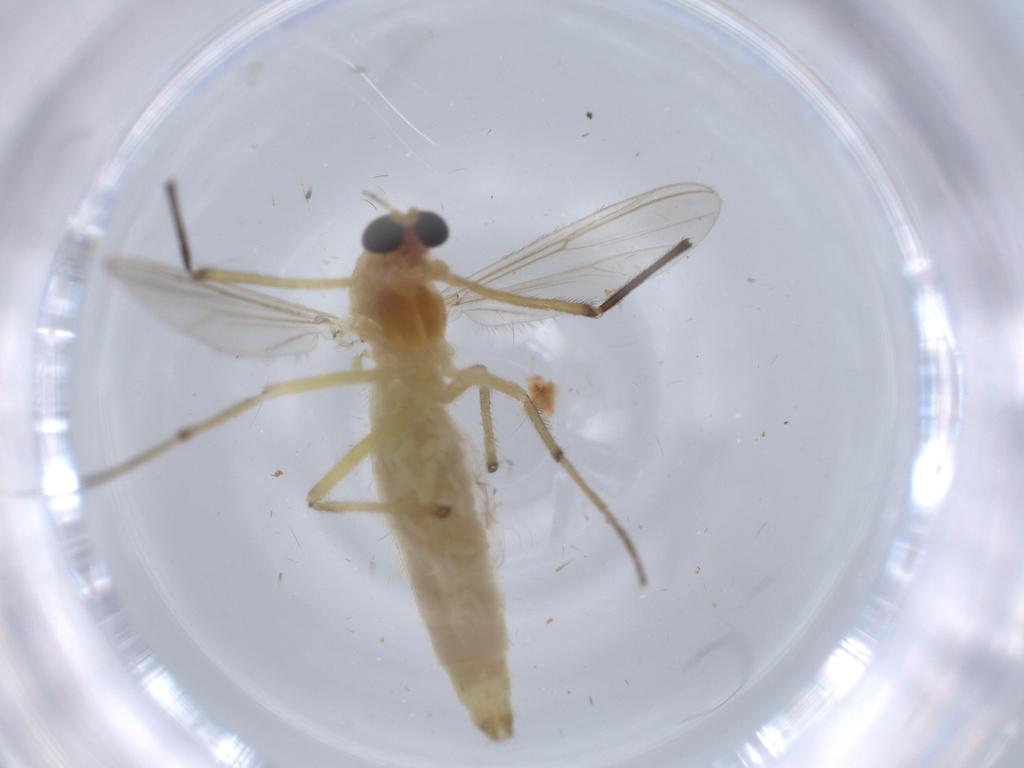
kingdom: Animalia
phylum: Arthropoda
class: Insecta
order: Diptera
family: Chironomidae
